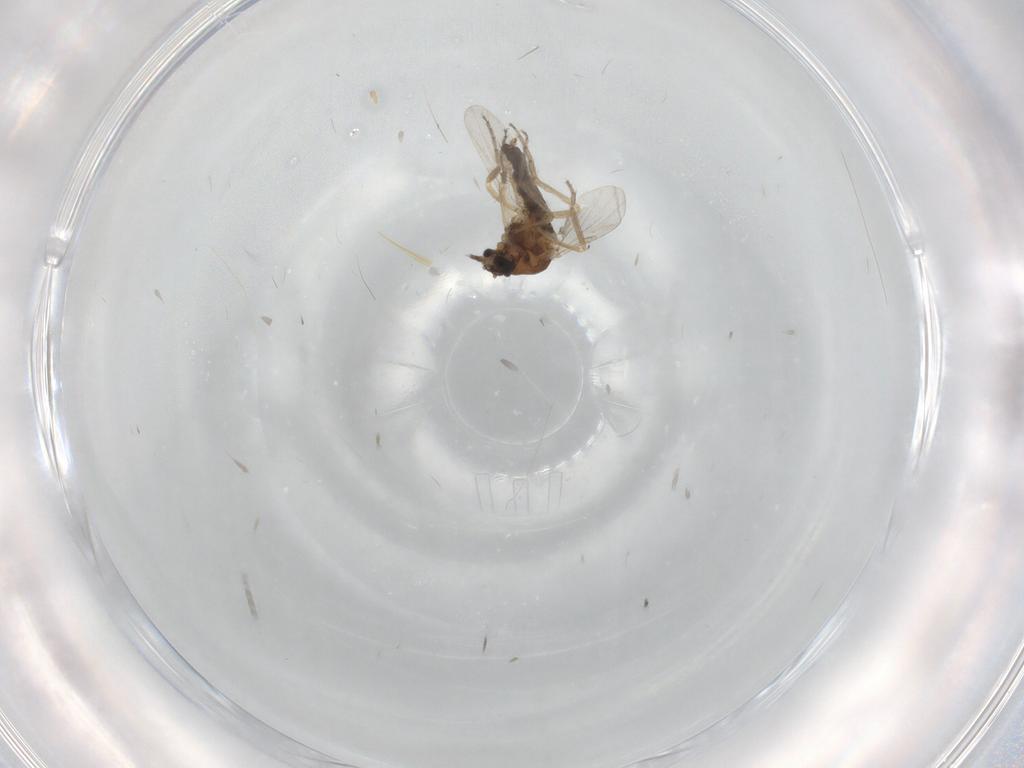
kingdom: Animalia
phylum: Arthropoda
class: Insecta
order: Diptera
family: Ceratopogonidae
